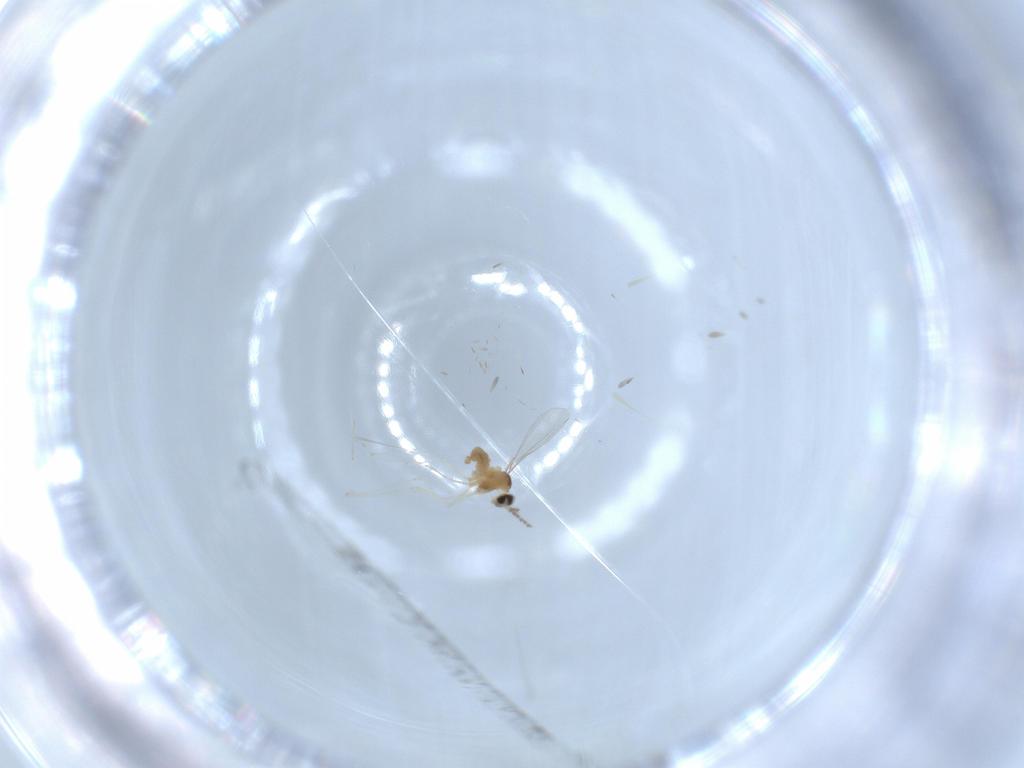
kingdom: Animalia
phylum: Arthropoda
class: Insecta
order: Diptera
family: Cecidomyiidae
